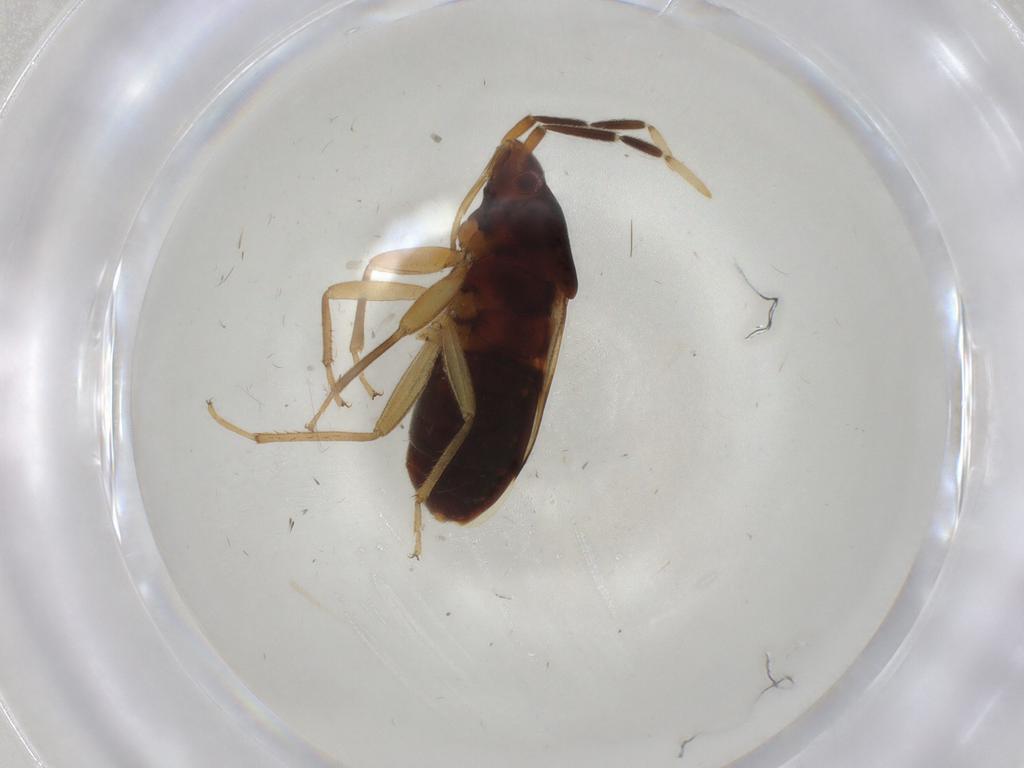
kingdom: Animalia
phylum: Arthropoda
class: Insecta
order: Hemiptera
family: Rhyparochromidae
